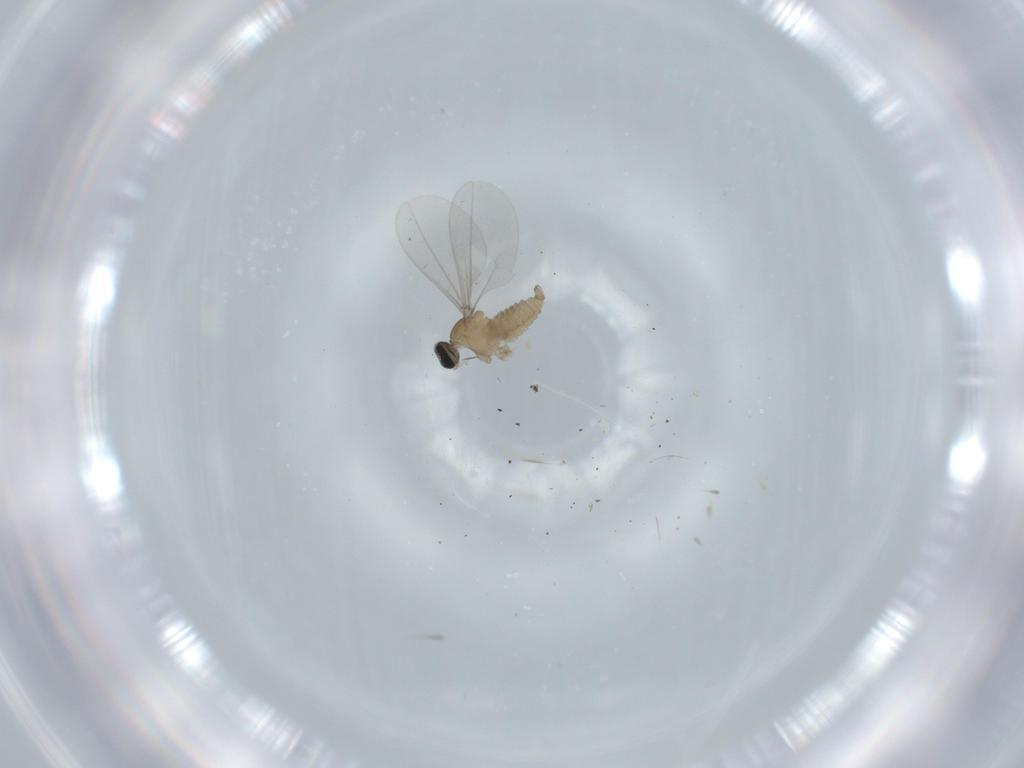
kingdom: Animalia
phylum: Arthropoda
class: Insecta
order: Diptera
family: Cecidomyiidae
